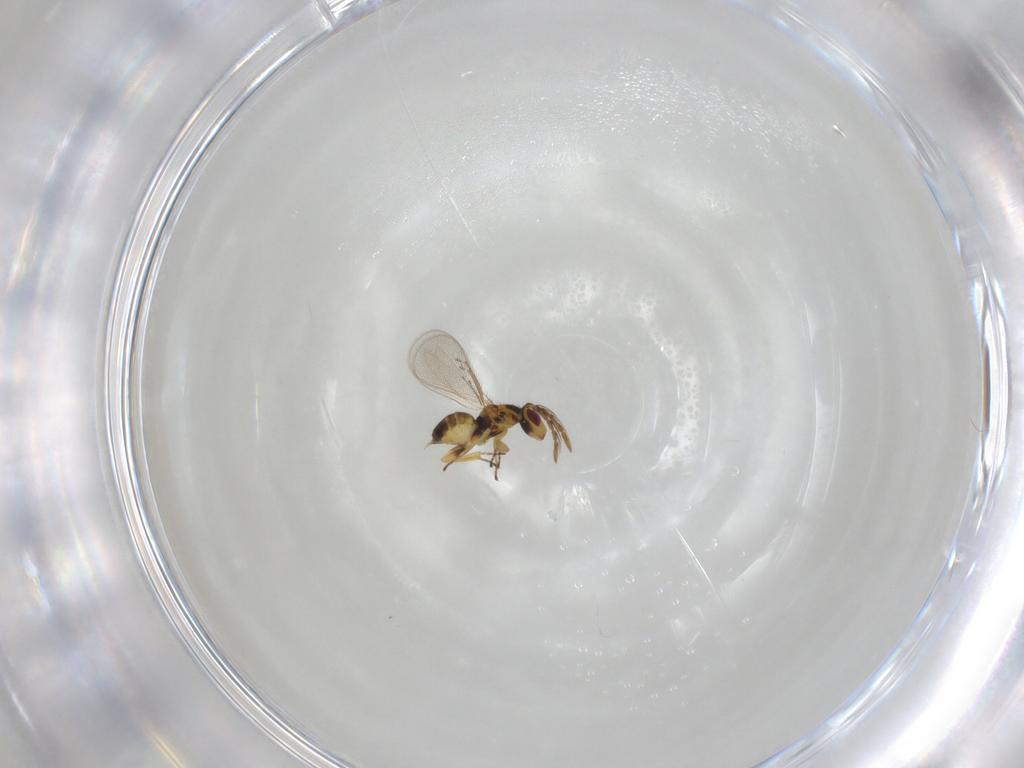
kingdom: Animalia
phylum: Arthropoda
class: Insecta
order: Hymenoptera
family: Eulophidae
